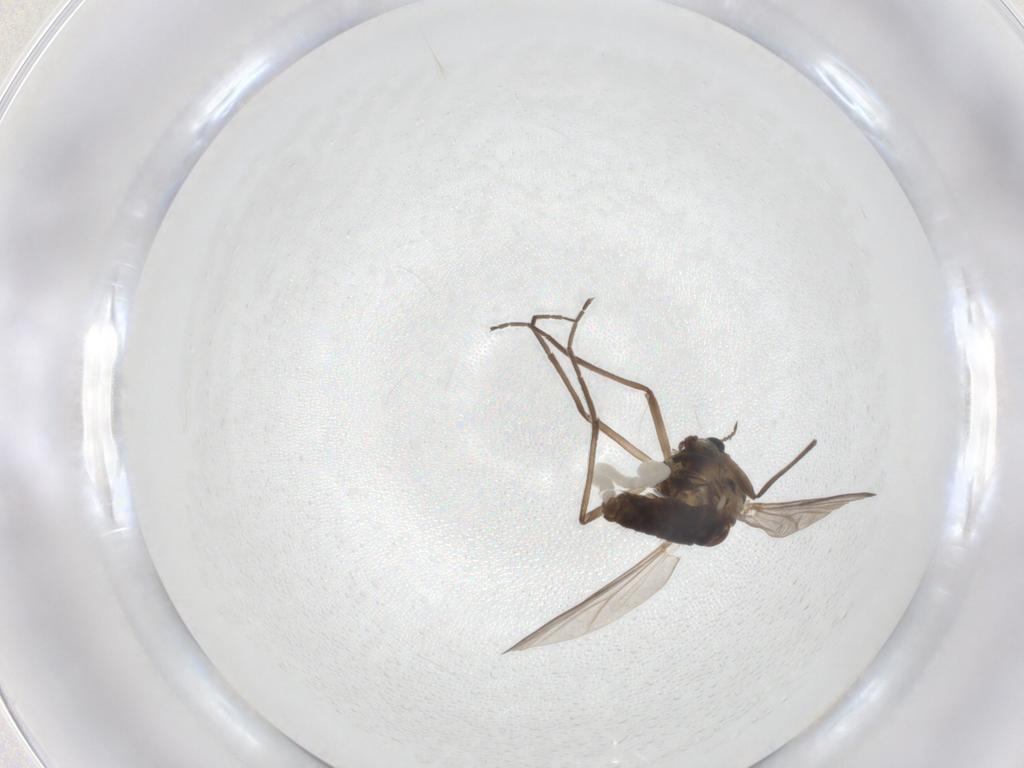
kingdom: Animalia
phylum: Arthropoda
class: Insecta
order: Diptera
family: Chironomidae
